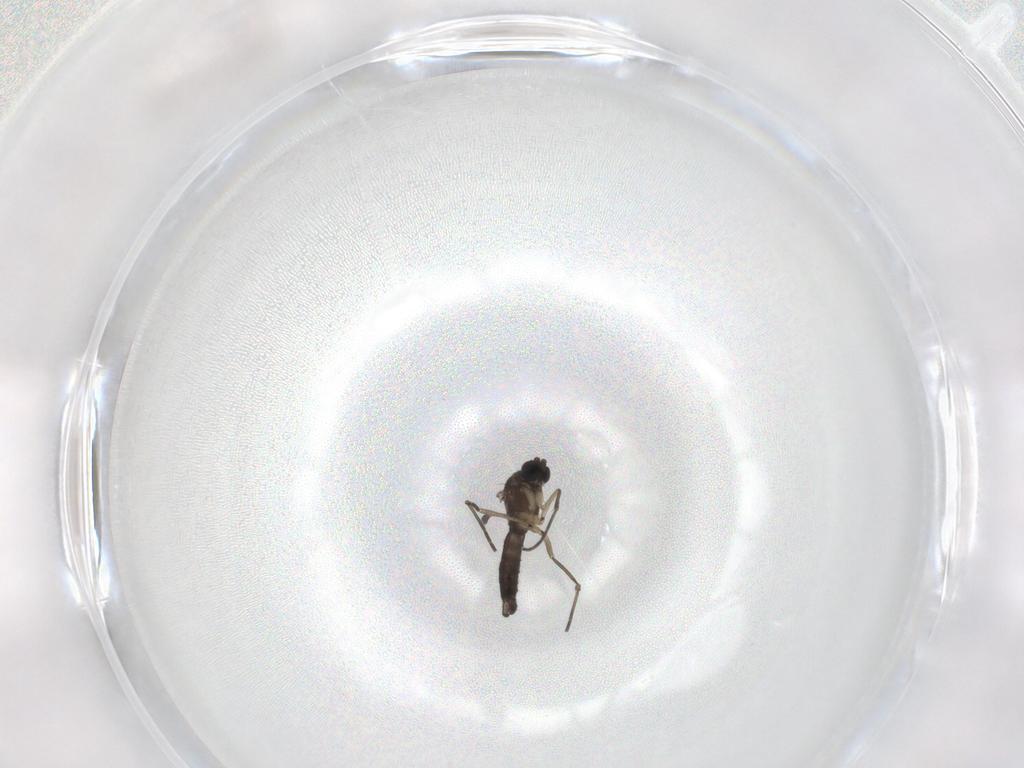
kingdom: Animalia
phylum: Arthropoda
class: Insecta
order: Diptera
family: Sciaridae
